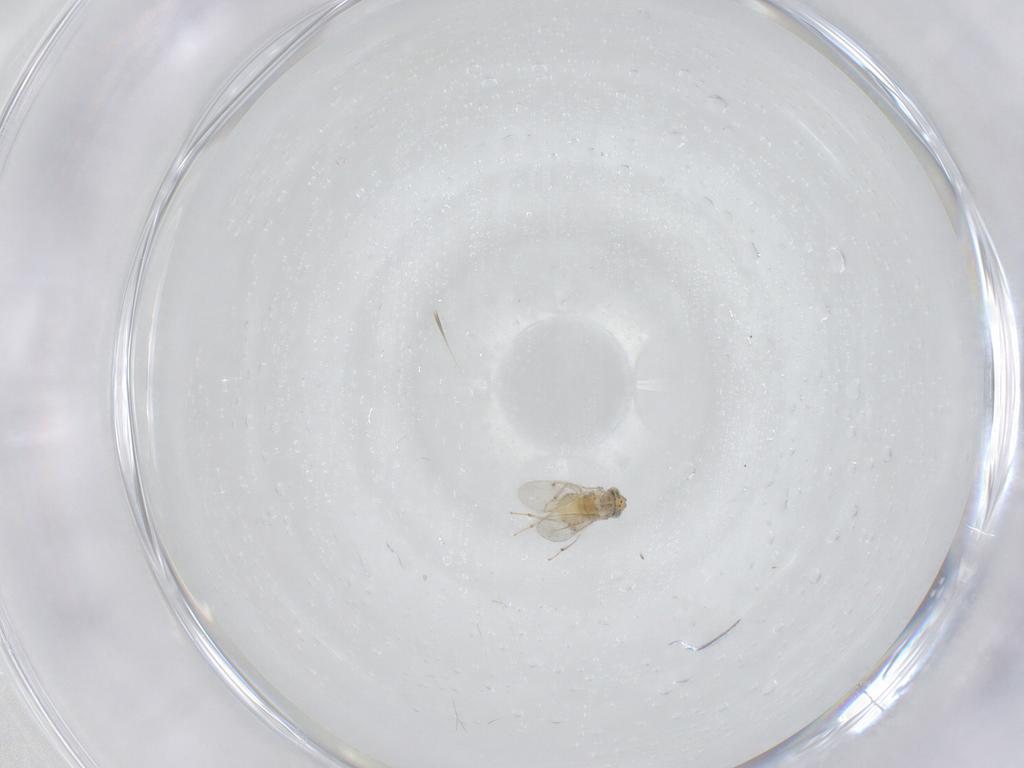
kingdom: Animalia
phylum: Arthropoda
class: Insecta
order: Hymenoptera
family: Aphelinidae
